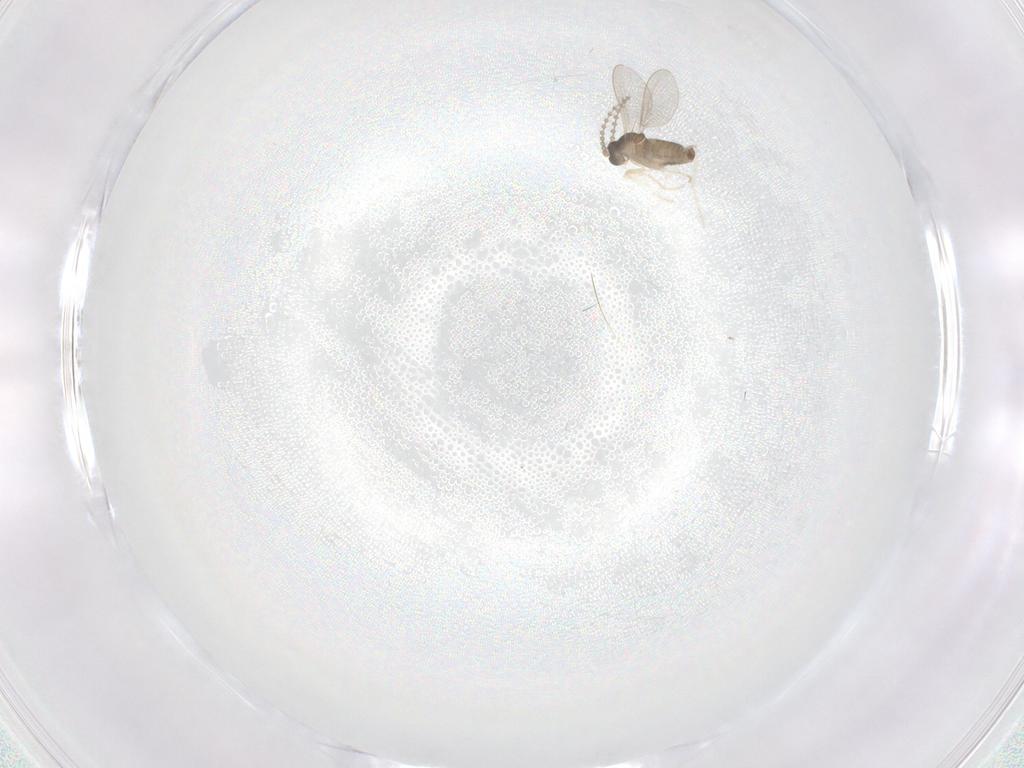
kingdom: Animalia
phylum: Arthropoda
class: Insecta
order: Diptera
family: Cecidomyiidae
